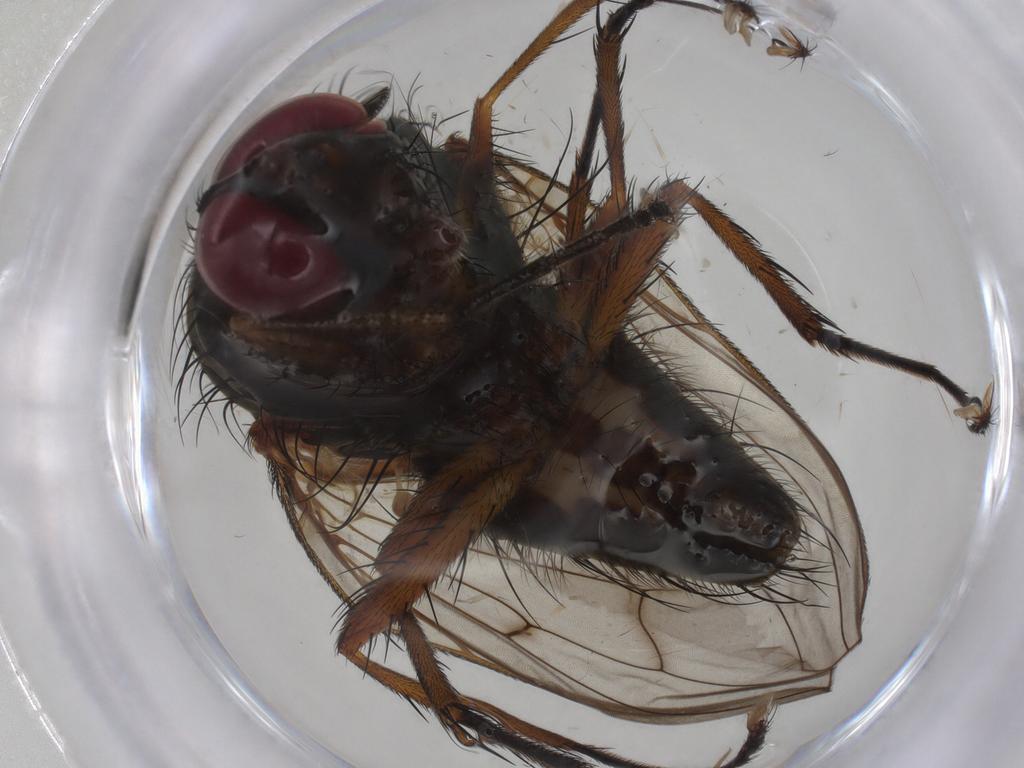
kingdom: Animalia
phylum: Arthropoda
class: Insecta
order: Diptera
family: Anthomyiidae
